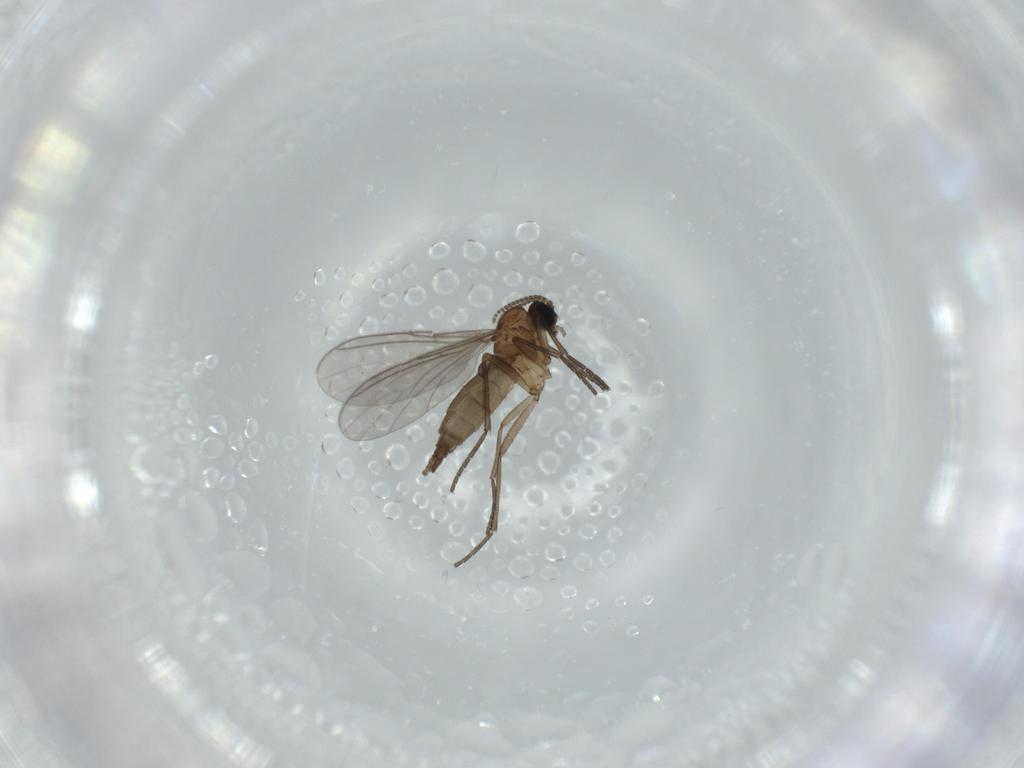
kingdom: Animalia
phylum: Arthropoda
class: Insecta
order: Diptera
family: Sciaridae
